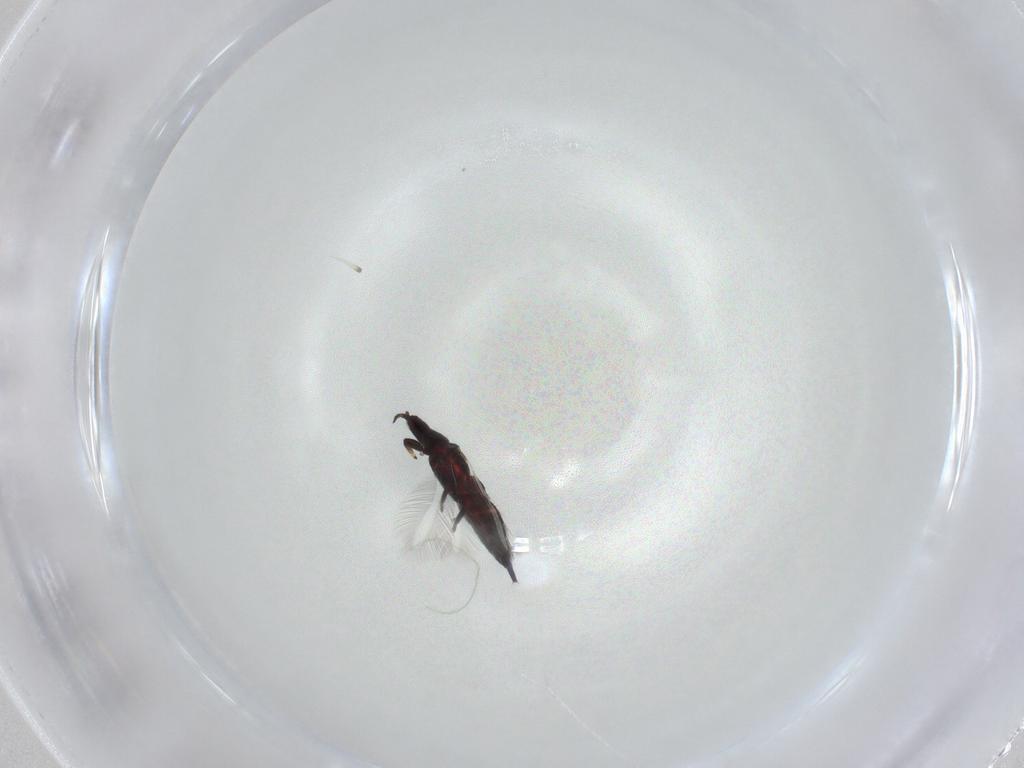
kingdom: Animalia
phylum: Arthropoda
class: Insecta
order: Thysanoptera
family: Phlaeothripidae
